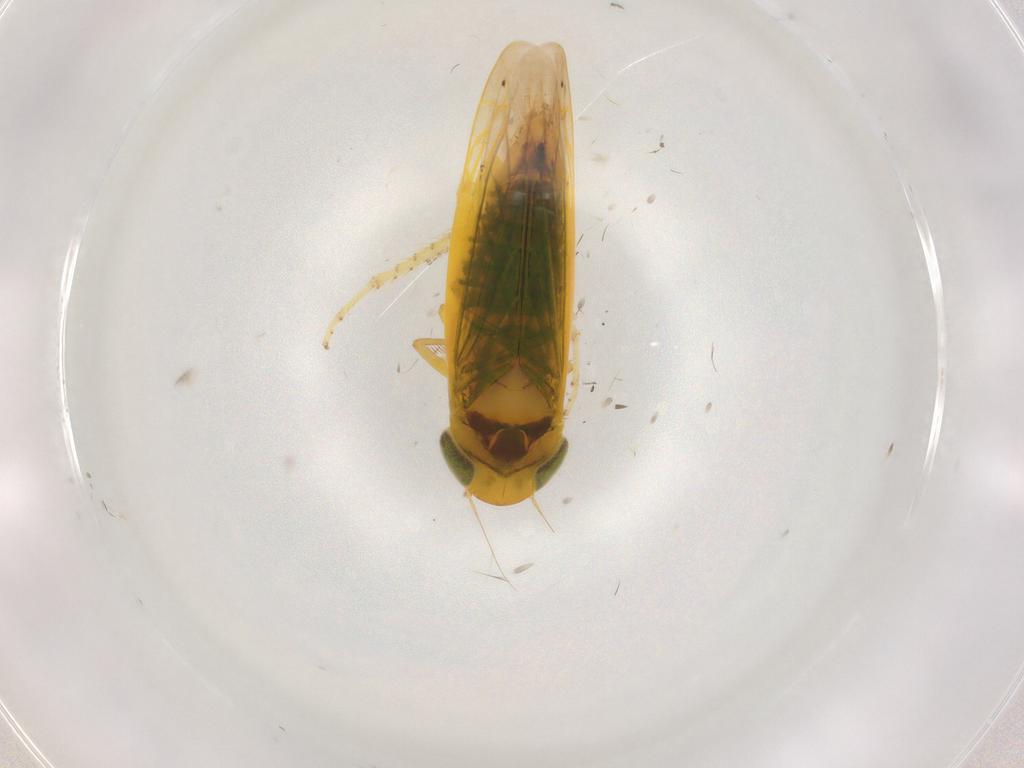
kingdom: Animalia
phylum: Arthropoda
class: Insecta
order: Hemiptera
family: Cicadellidae
